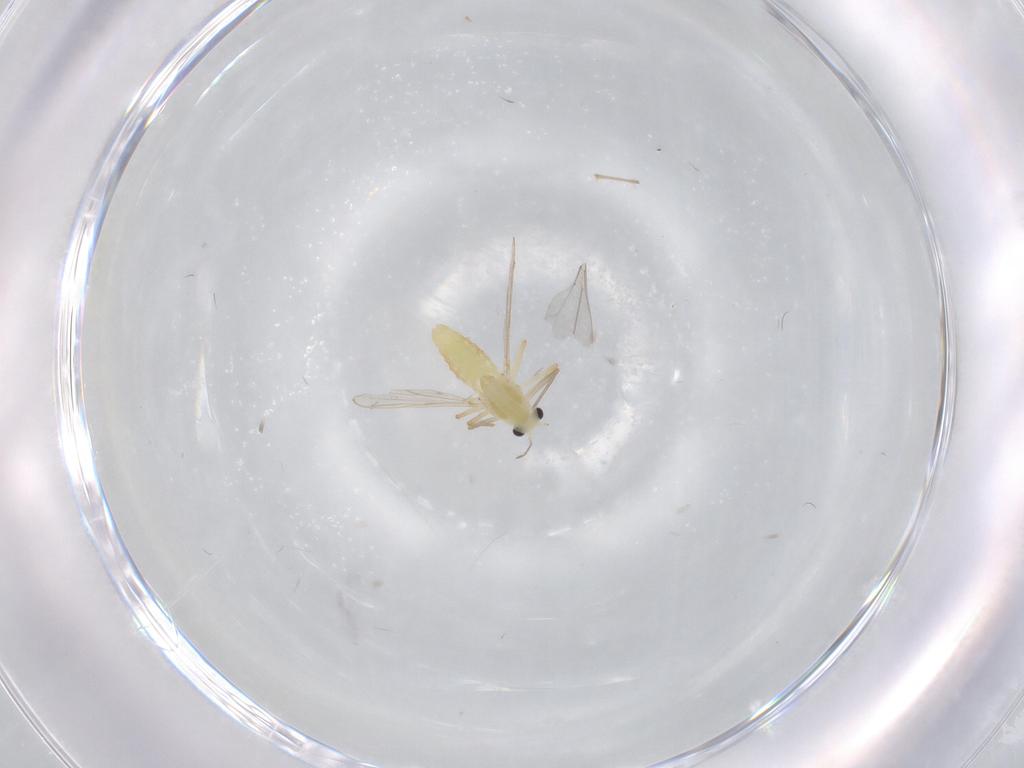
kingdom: Animalia
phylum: Arthropoda
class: Insecta
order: Diptera
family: Chironomidae
